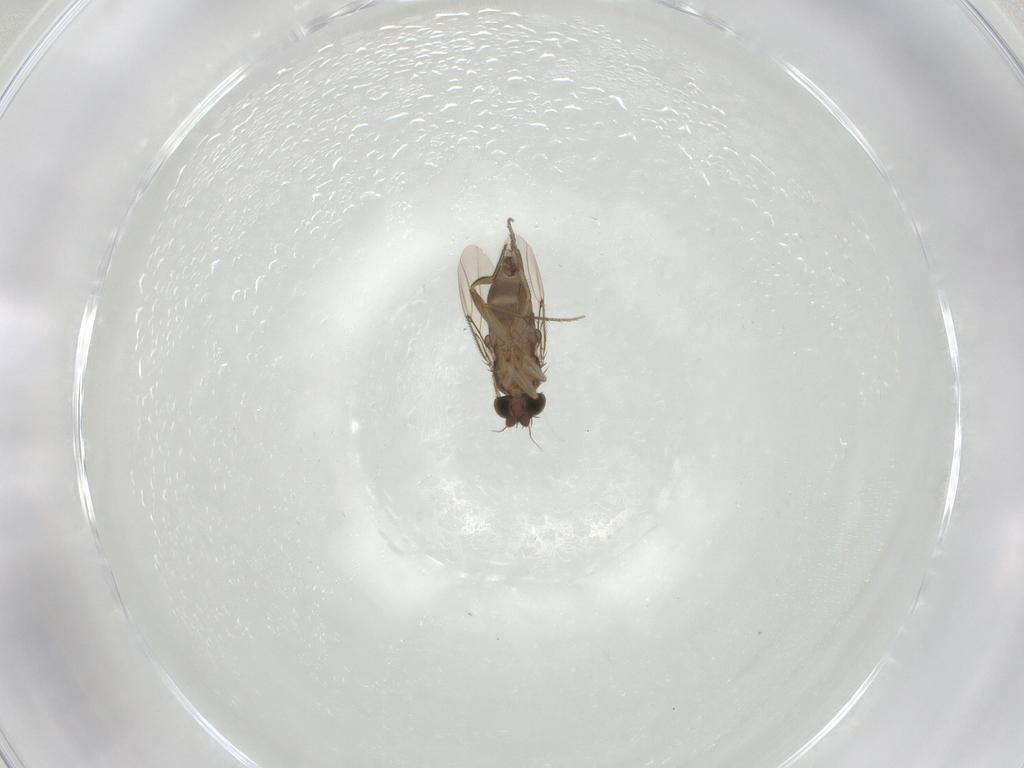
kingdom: Animalia
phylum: Arthropoda
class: Insecta
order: Diptera
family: Phoridae
